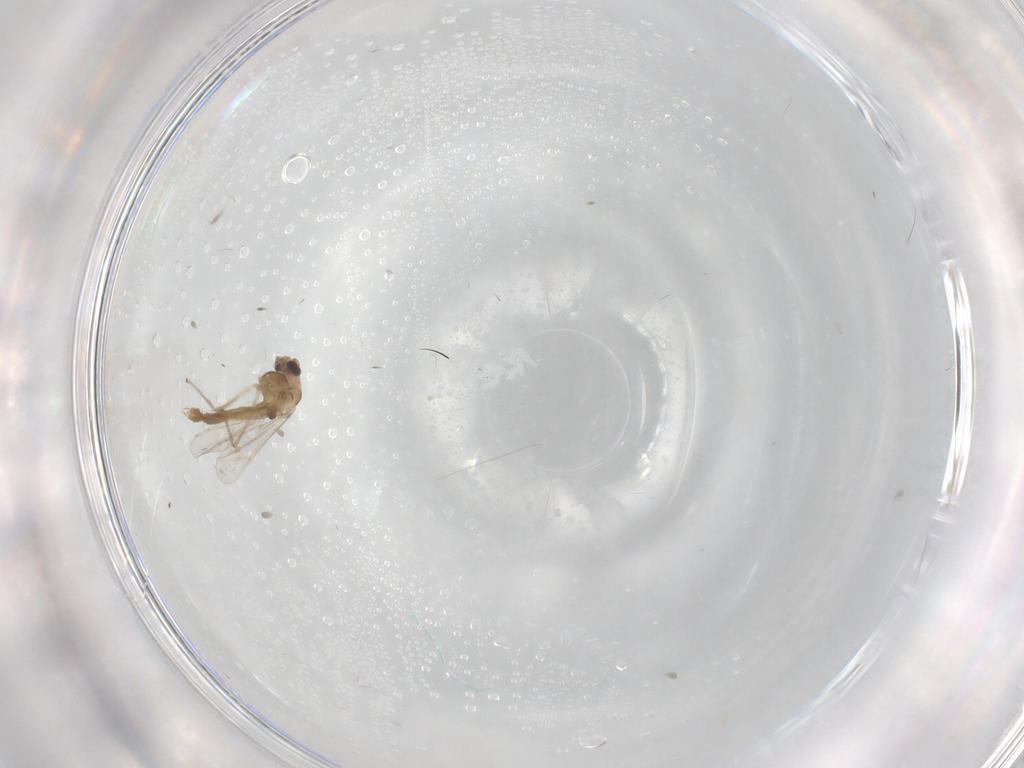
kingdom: Animalia
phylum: Arthropoda
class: Insecta
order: Diptera
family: Chironomidae
